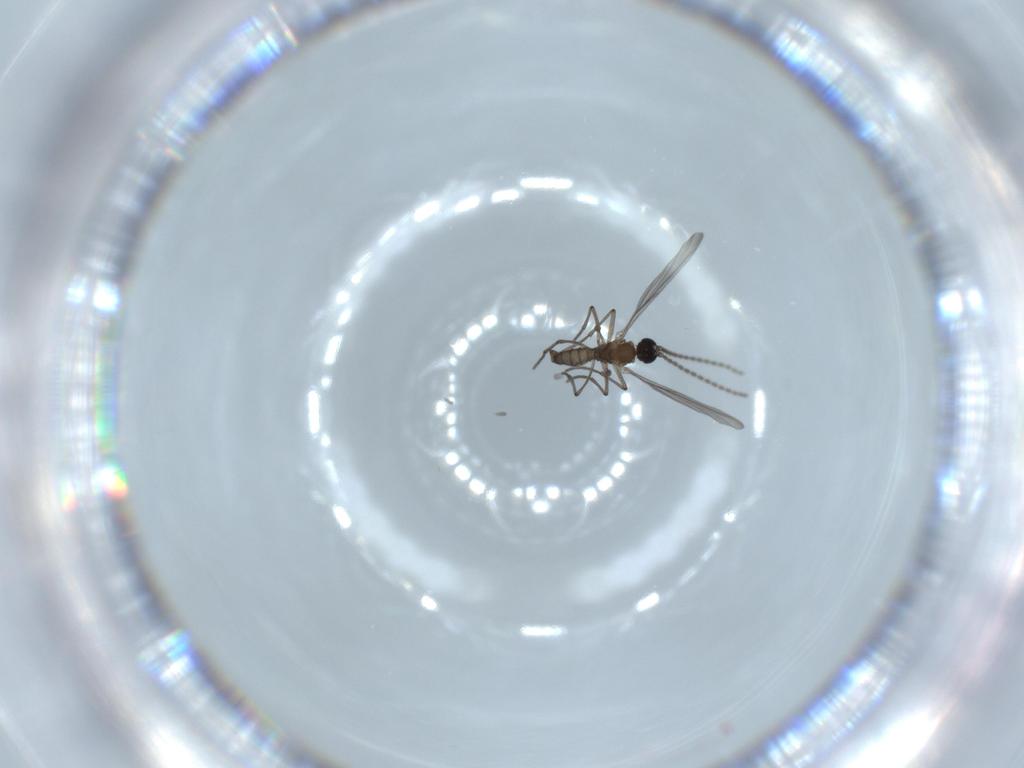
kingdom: Animalia
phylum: Arthropoda
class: Insecta
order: Diptera
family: Sciaridae
